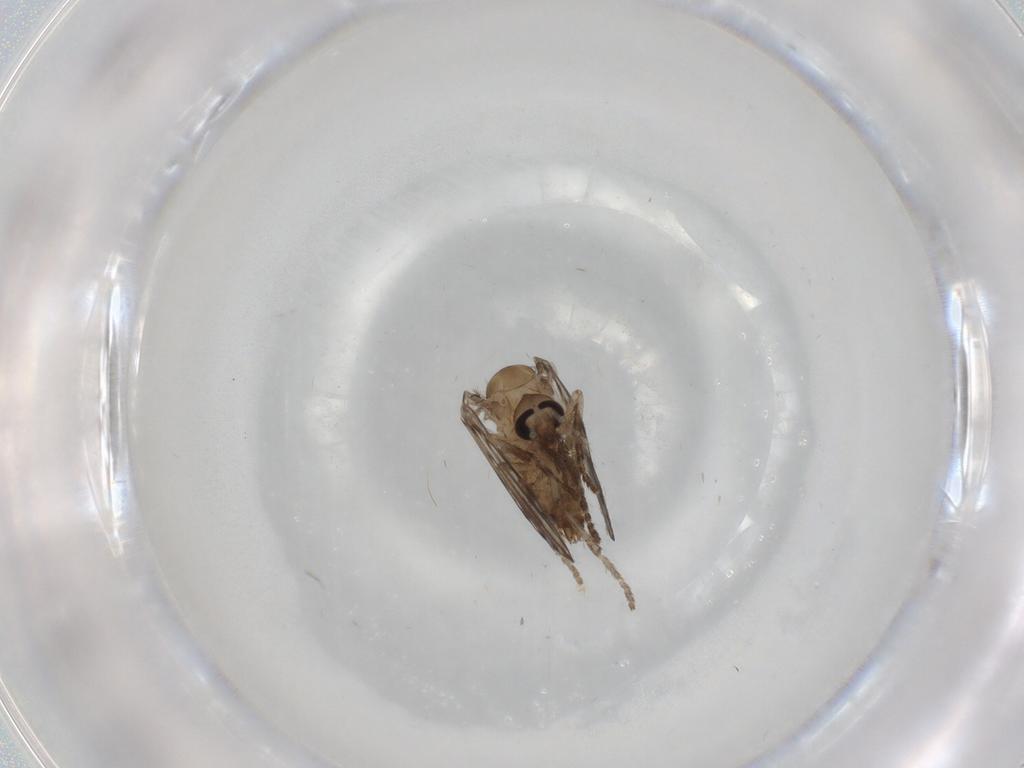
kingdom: Animalia
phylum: Arthropoda
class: Insecta
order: Diptera
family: Psychodidae
